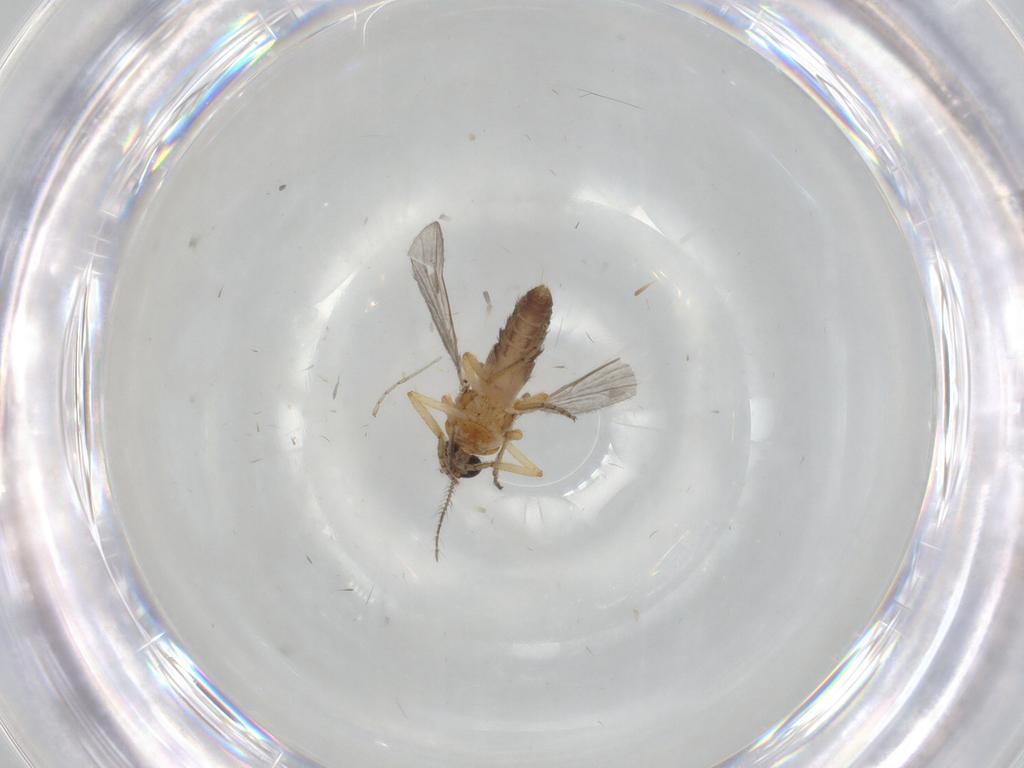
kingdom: Animalia
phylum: Arthropoda
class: Insecta
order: Diptera
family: Ceratopogonidae
